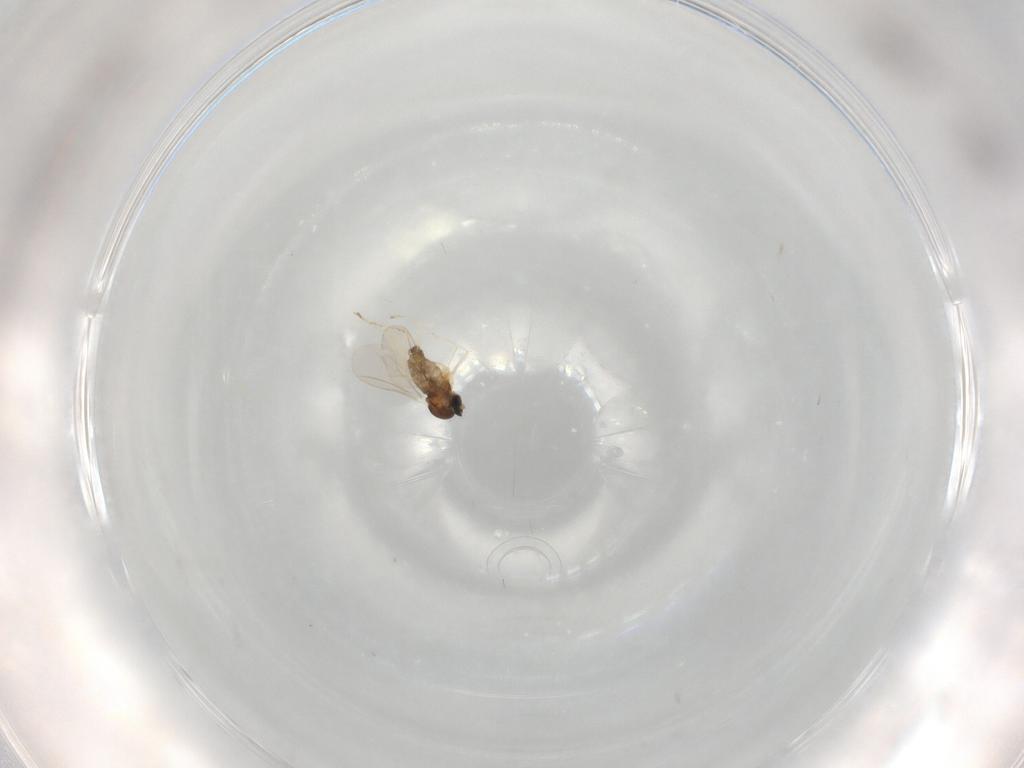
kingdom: Animalia
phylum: Arthropoda
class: Insecta
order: Diptera
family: Cecidomyiidae
